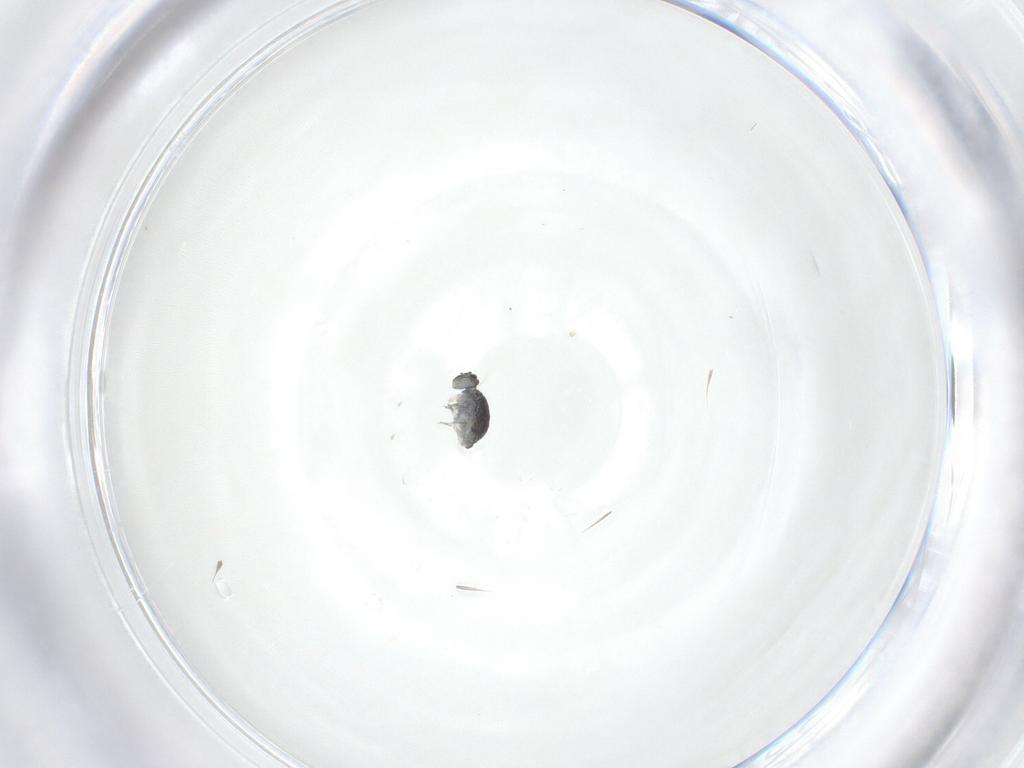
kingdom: Animalia
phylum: Arthropoda
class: Collembola
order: Symphypleona
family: Katiannidae
